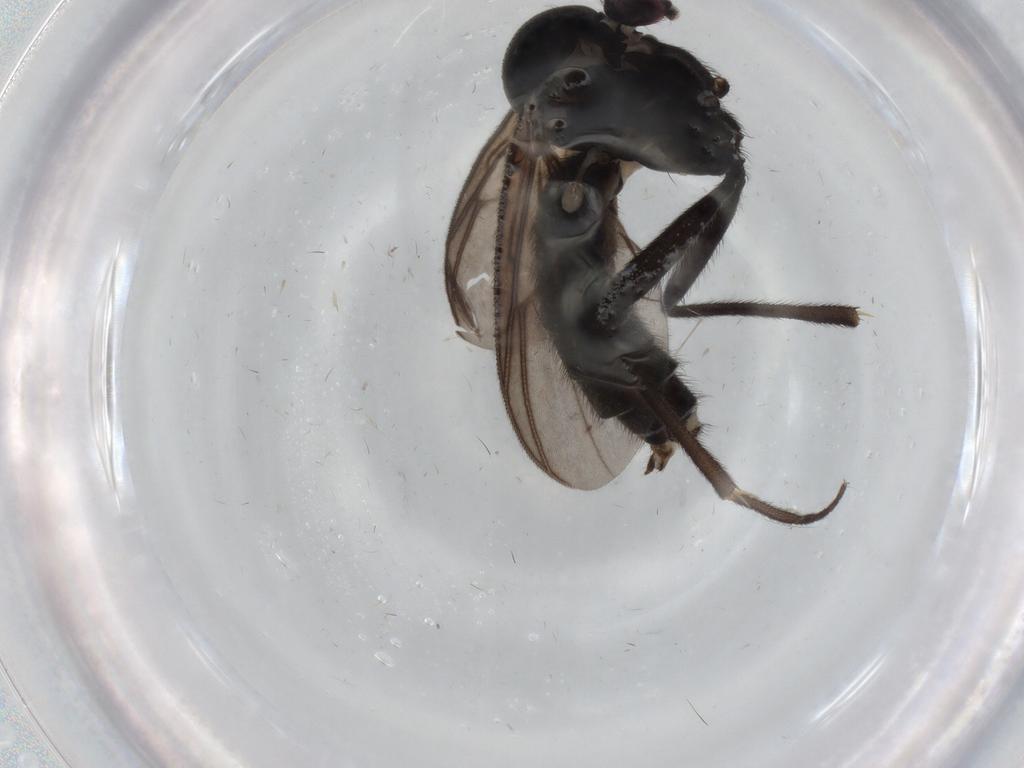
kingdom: Animalia
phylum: Arthropoda
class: Insecta
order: Diptera
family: Mycetophilidae
